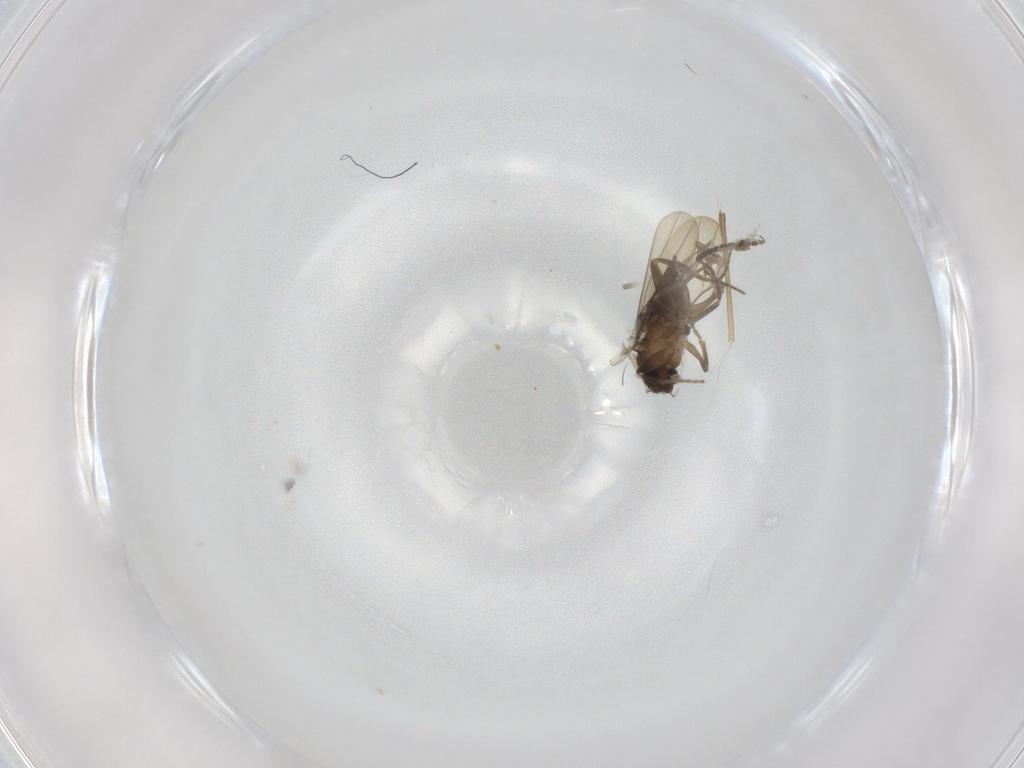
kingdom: Animalia
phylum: Arthropoda
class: Insecta
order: Diptera
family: Sciaridae
